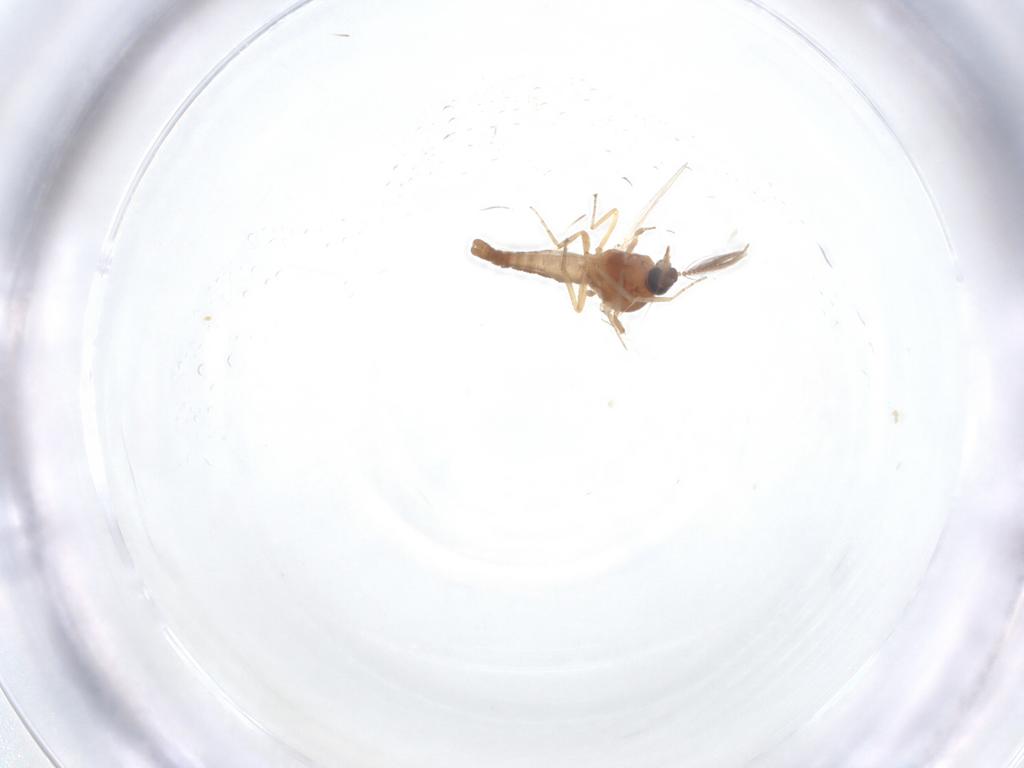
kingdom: Animalia
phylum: Arthropoda
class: Insecta
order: Diptera
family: Ceratopogonidae
